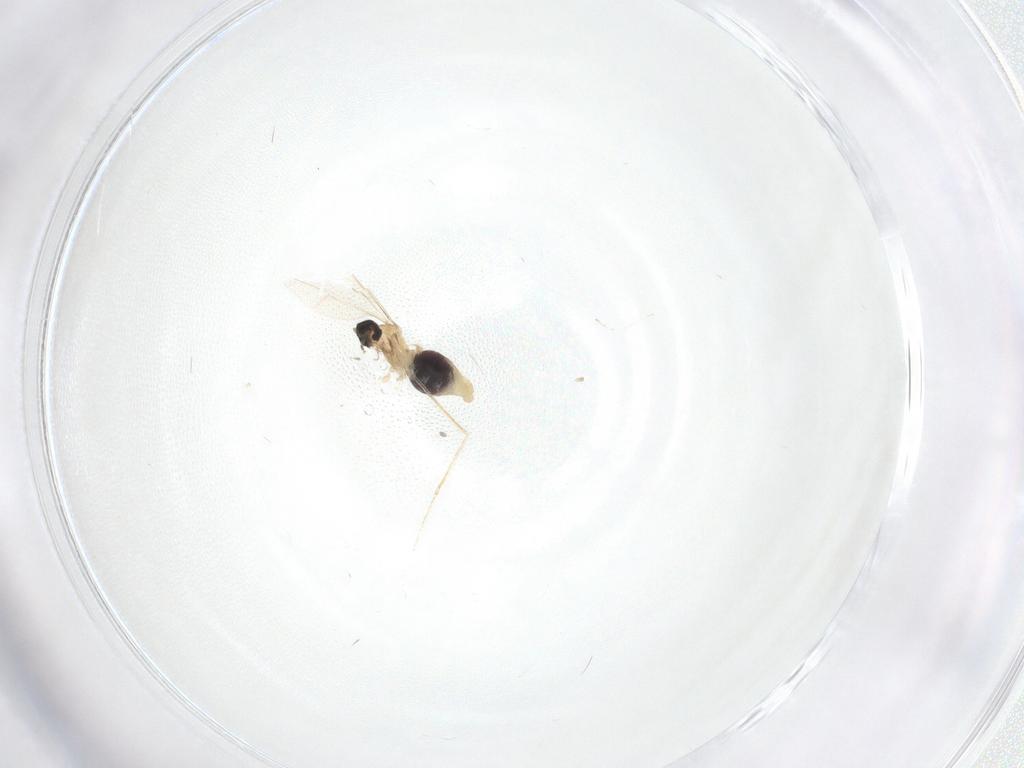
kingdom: Animalia
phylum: Arthropoda
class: Insecta
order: Diptera
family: Cecidomyiidae
